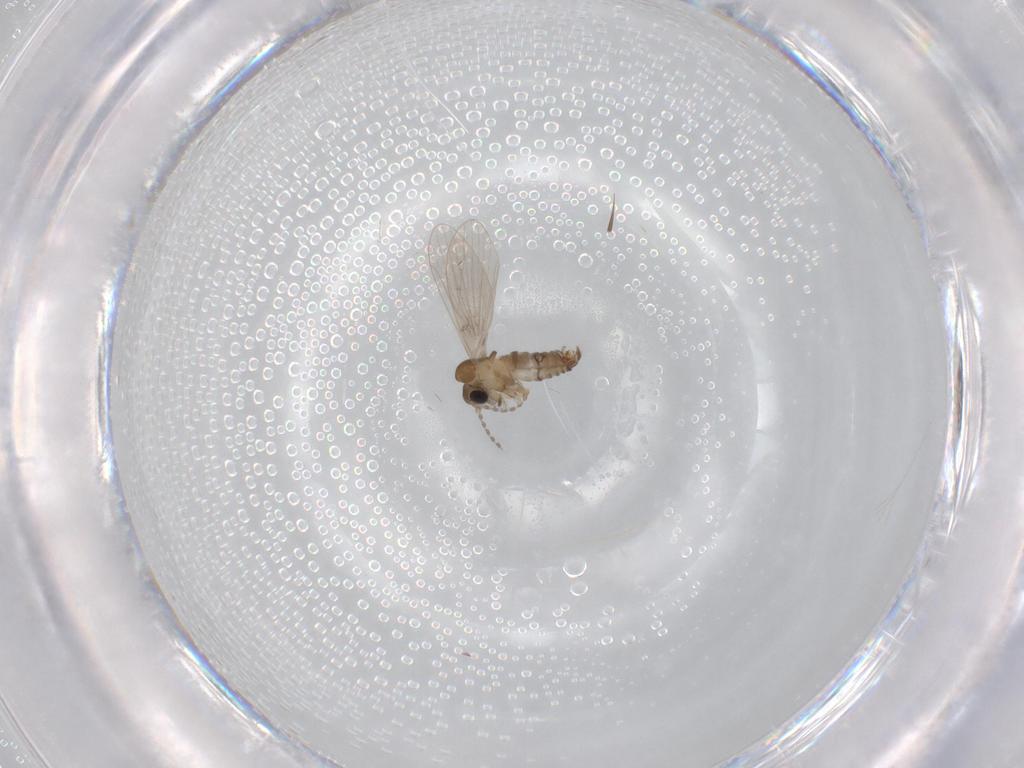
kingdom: Animalia
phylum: Arthropoda
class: Insecta
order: Diptera
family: Psychodidae
